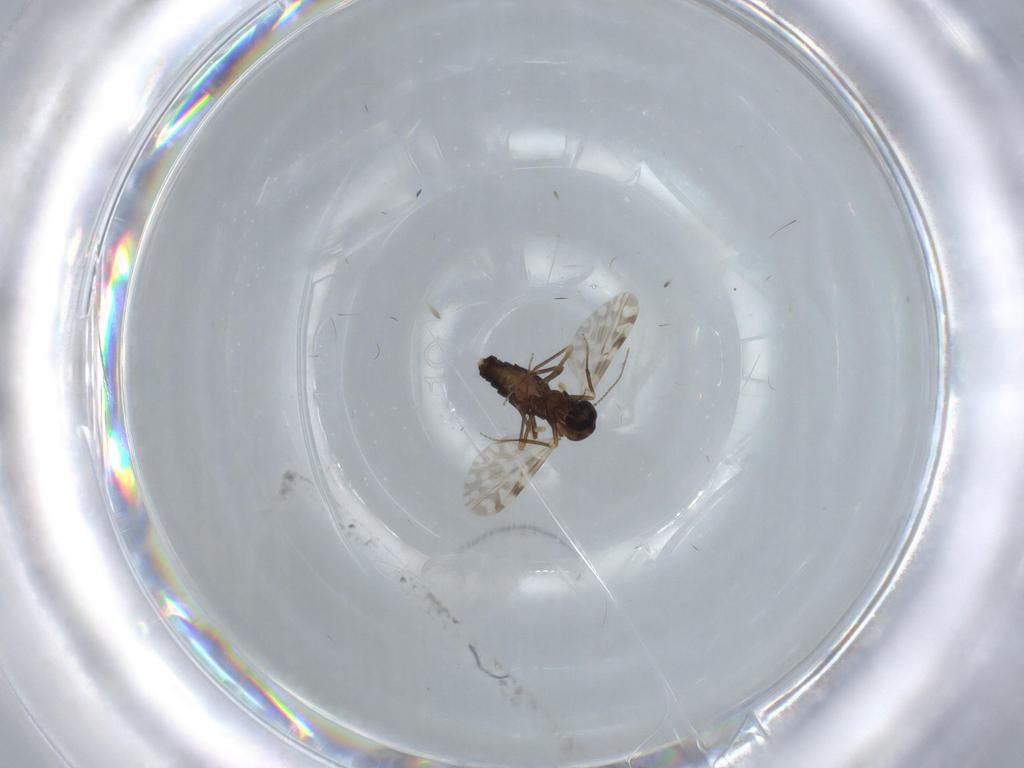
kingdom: Animalia
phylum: Arthropoda
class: Insecta
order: Diptera
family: Ceratopogonidae
